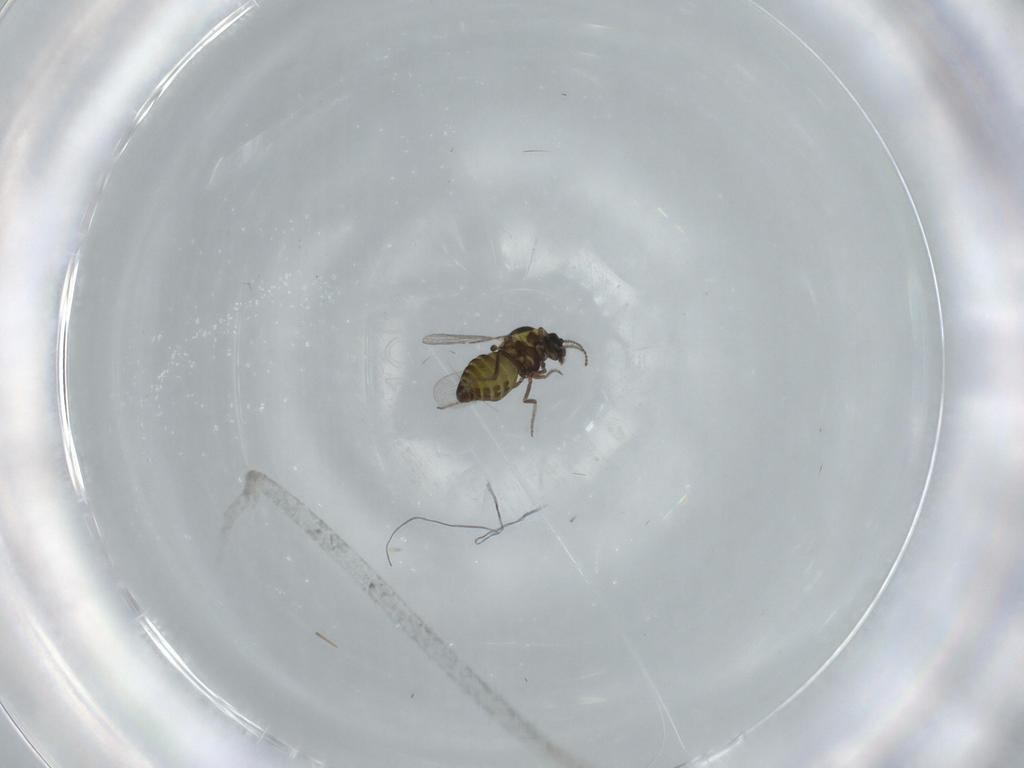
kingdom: Animalia
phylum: Arthropoda
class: Insecta
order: Diptera
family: Ceratopogonidae
